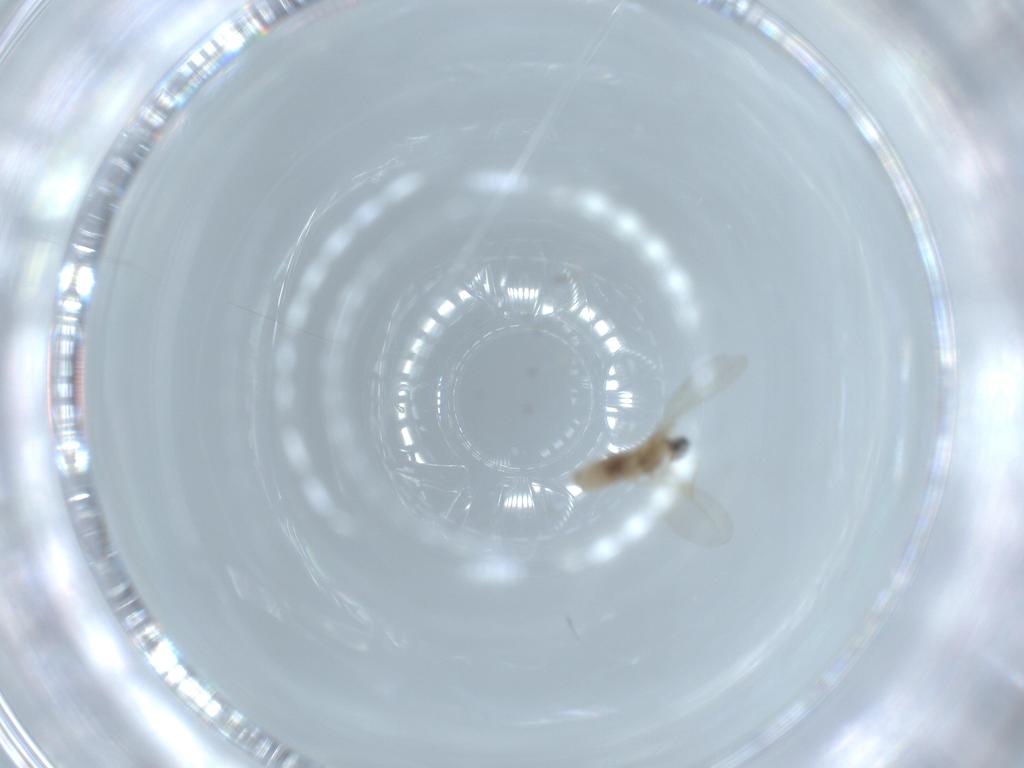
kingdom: Animalia
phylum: Arthropoda
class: Insecta
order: Diptera
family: Cecidomyiidae
